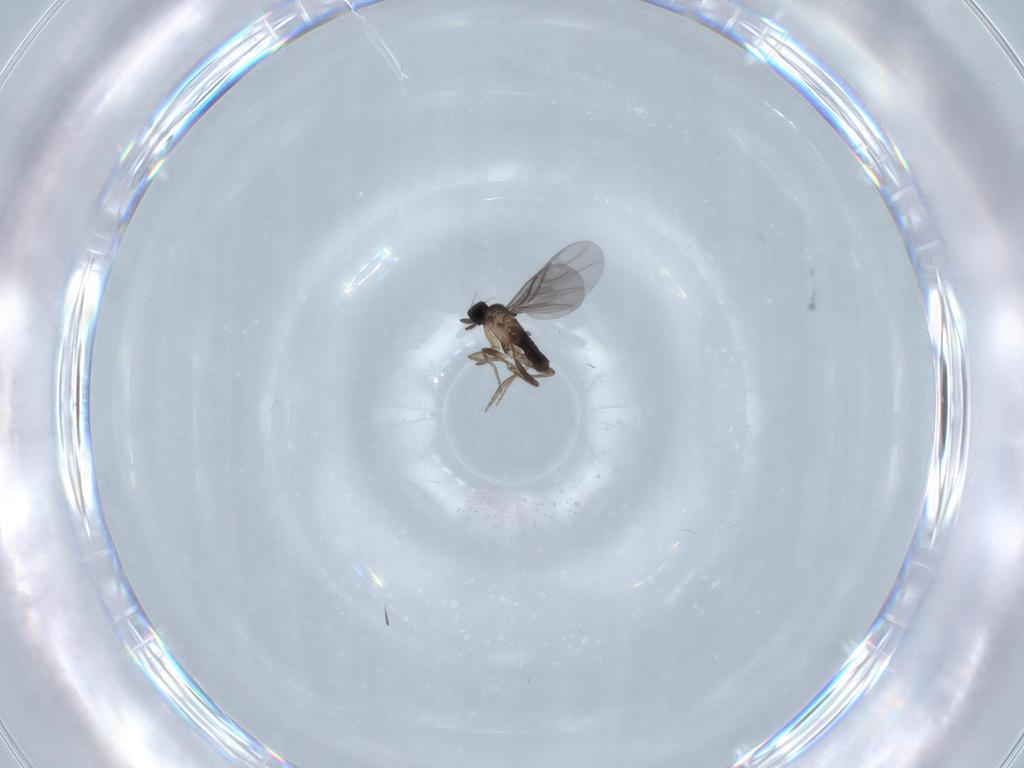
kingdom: Animalia
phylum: Arthropoda
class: Insecta
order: Diptera
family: Phoridae
